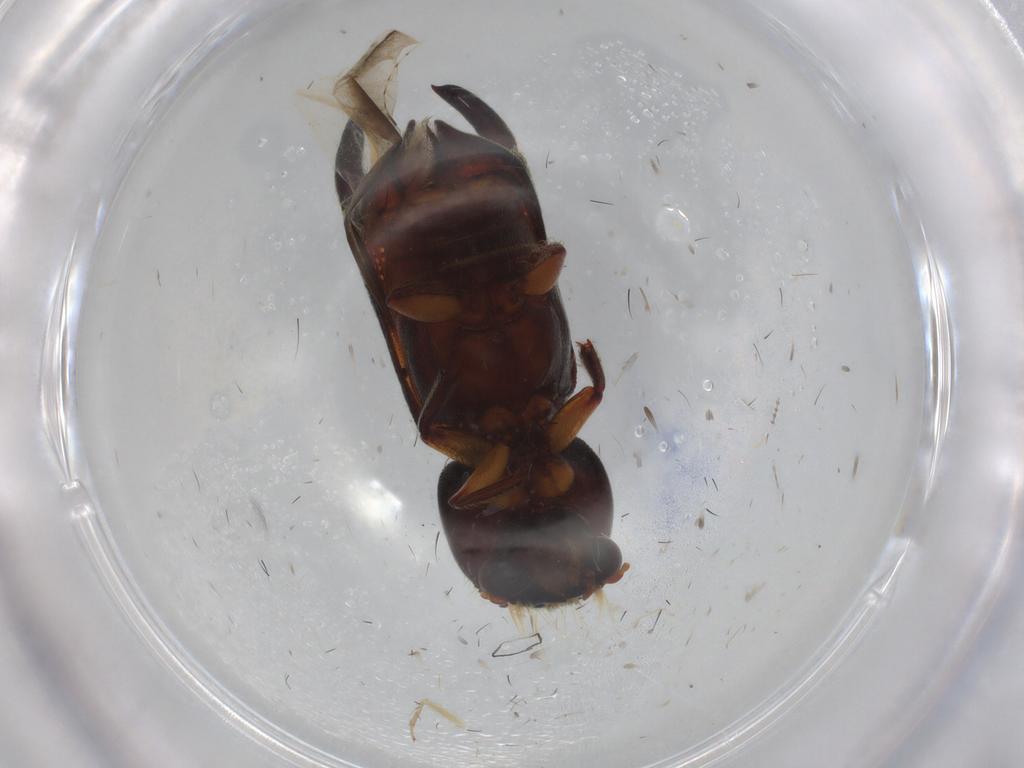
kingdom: Animalia
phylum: Arthropoda
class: Insecta
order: Coleoptera
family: Bostrichidae
